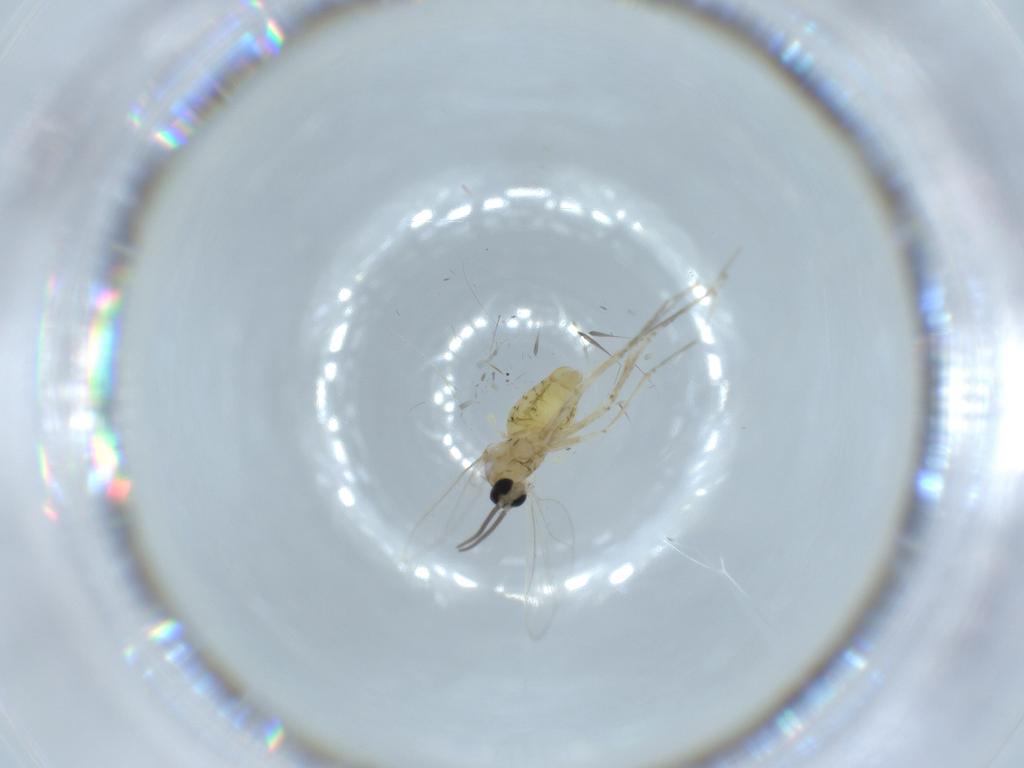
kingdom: Animalia
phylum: Arthropoda
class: Insecta
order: Diptera
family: Cecidomyiidae
